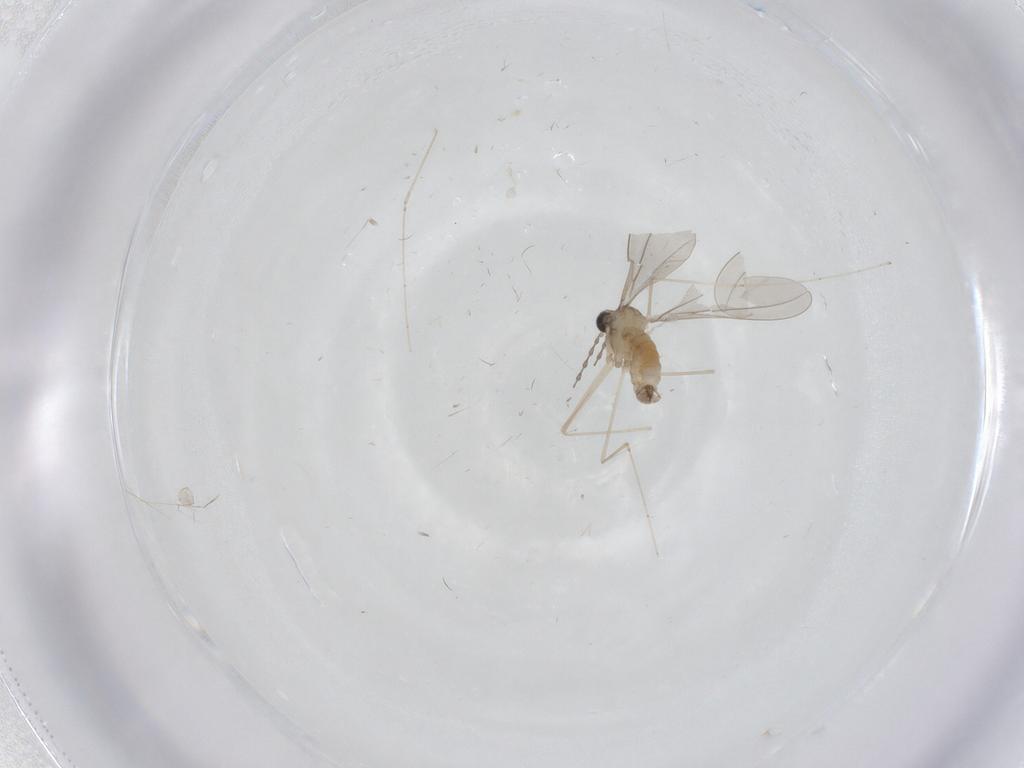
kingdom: Animalia
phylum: Arthropoda
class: Insecta
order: Diptera
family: Cecidomyiidae
